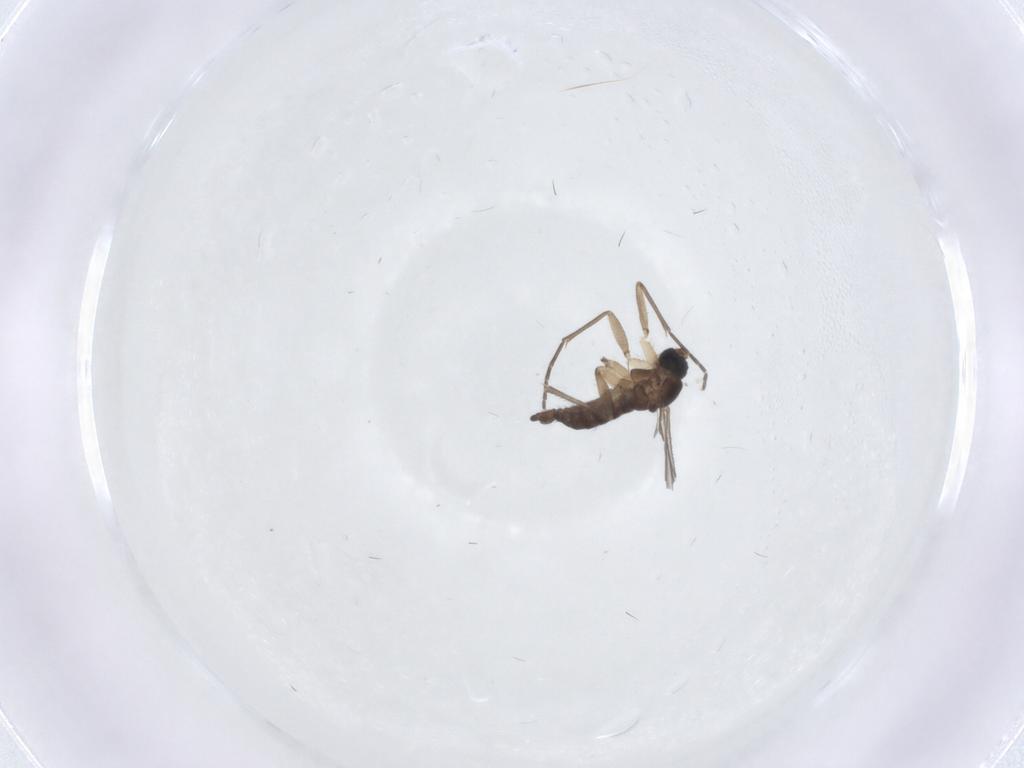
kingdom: Animalia
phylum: Arthropoda
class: Insecta
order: Diptera
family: Sciaridae
